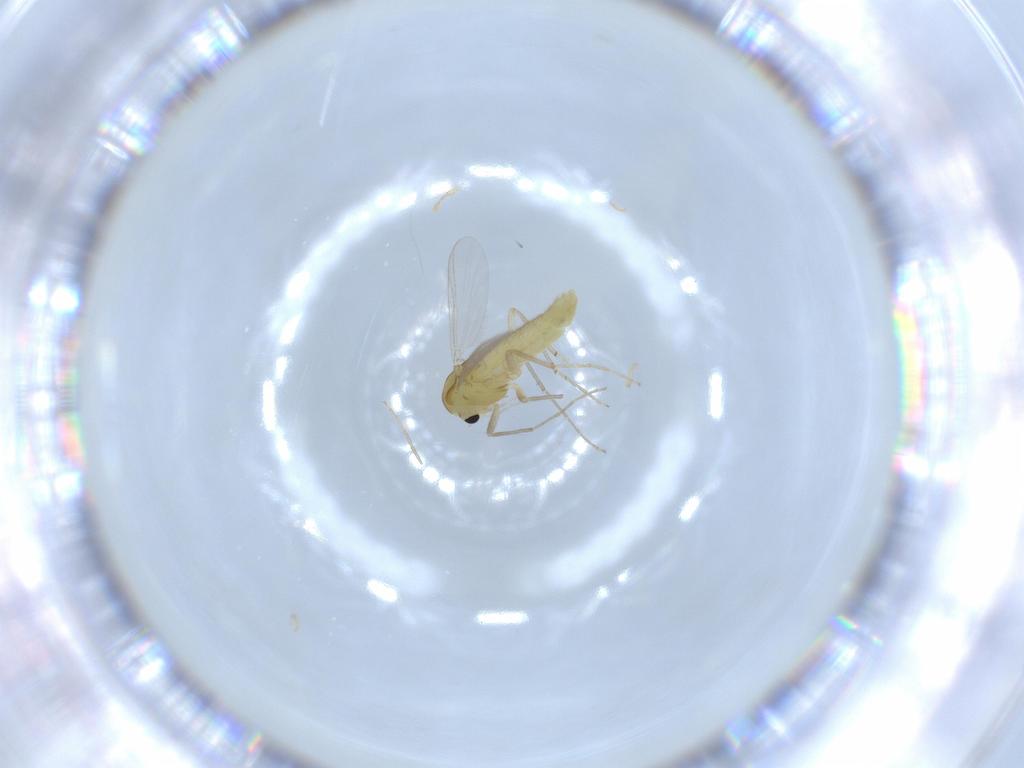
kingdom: Animalia
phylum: Arthropoda
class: Insecta
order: Diptera
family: Chironomidae
